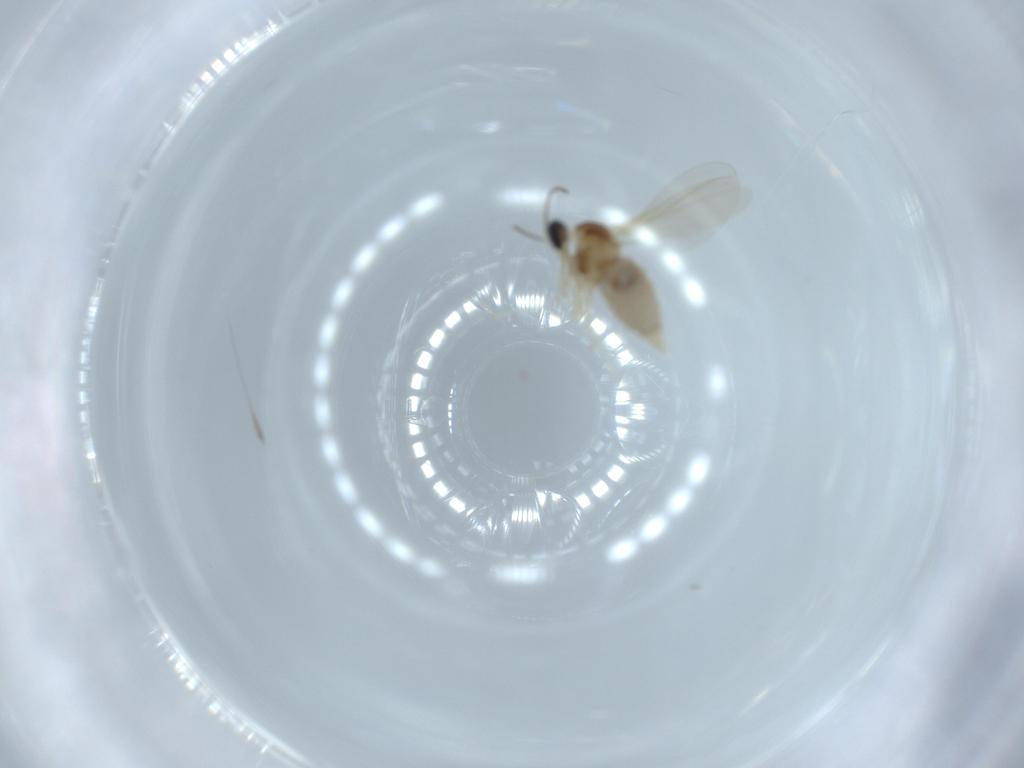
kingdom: Animalia
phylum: Arthropoda
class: Insecta
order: Diptera
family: Cecidomyiidae
